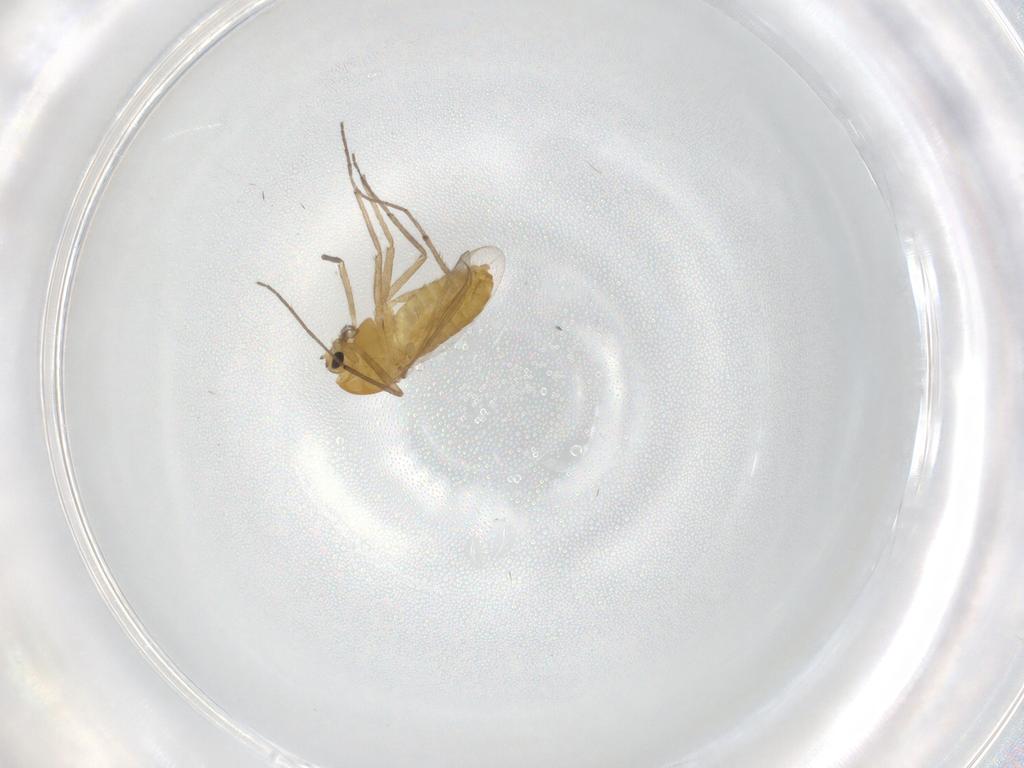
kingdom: Animalia
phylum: Arthropoda
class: Insecta
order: Diptera
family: Chironomidae
